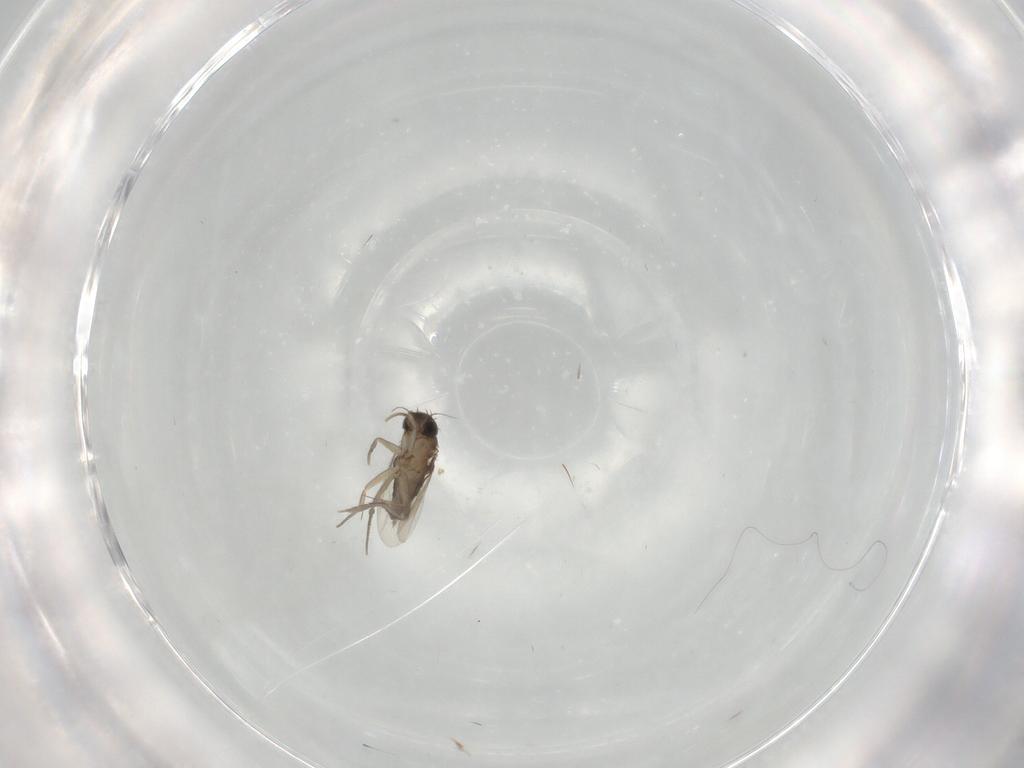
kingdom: Animalia
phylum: Arthropoda
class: Insecta
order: Diptera
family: Phoridae
